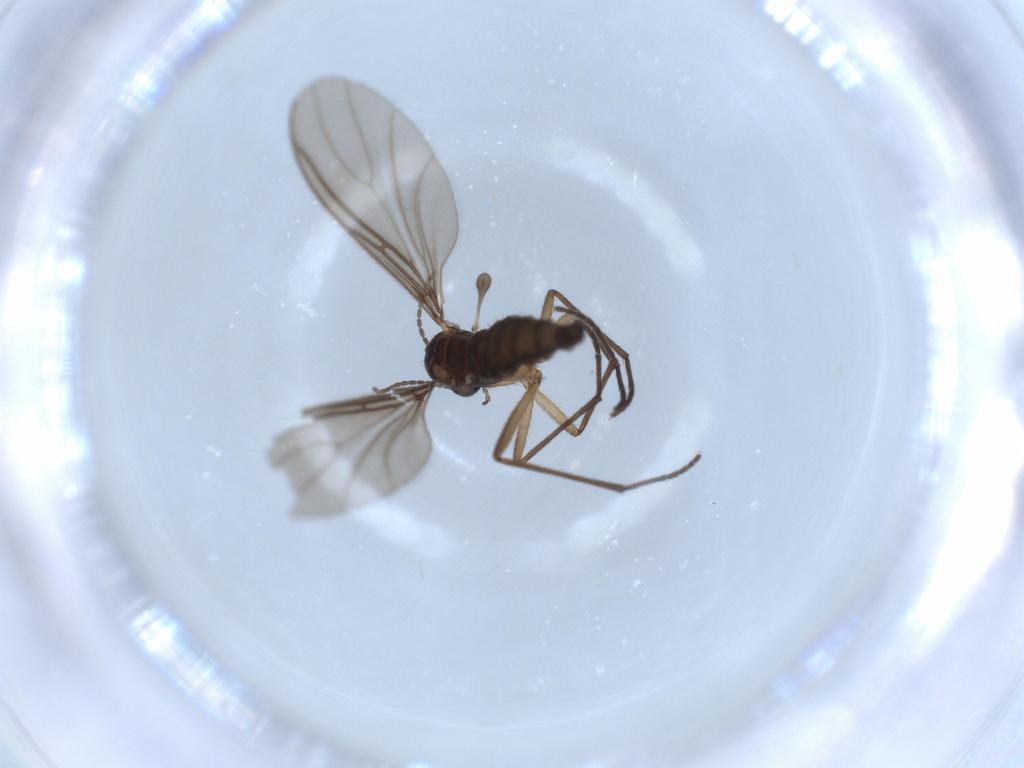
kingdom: Animalia
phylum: Arthropoda
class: Insecta
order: Diptera
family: Sciaridae
